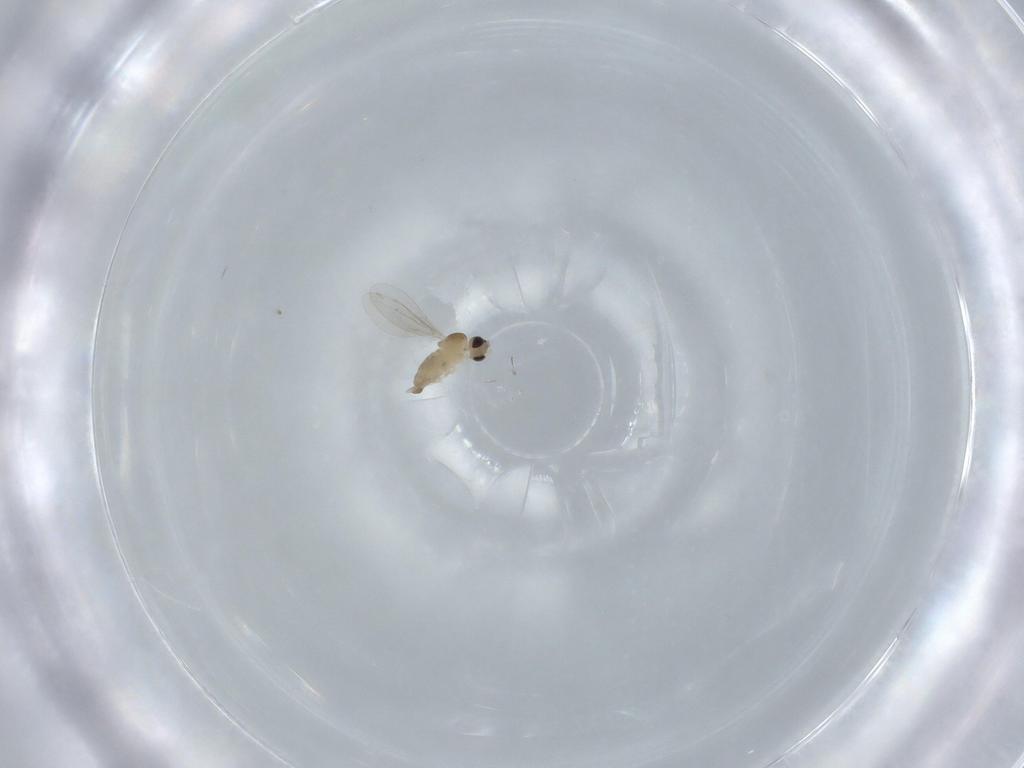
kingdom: Animalia
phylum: Arthropoda
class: Insecta
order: Diptera
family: Cecidomyiidae
